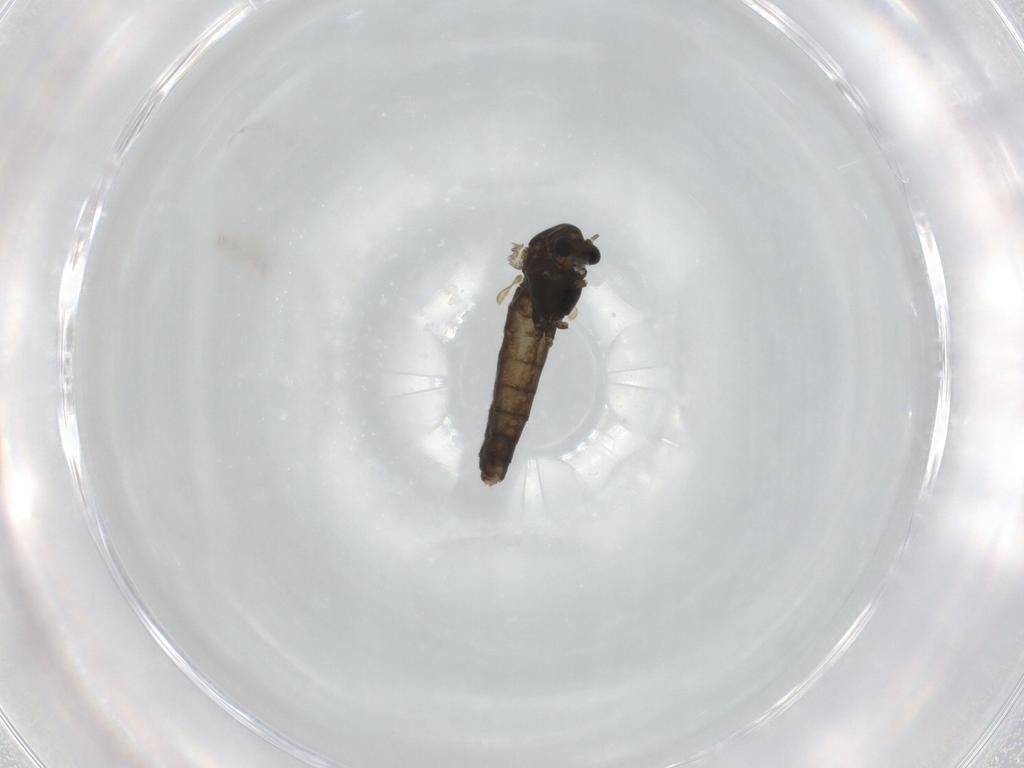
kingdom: Animalia
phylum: Arthropoda
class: Insecta
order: Diptera
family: Chironomidae
